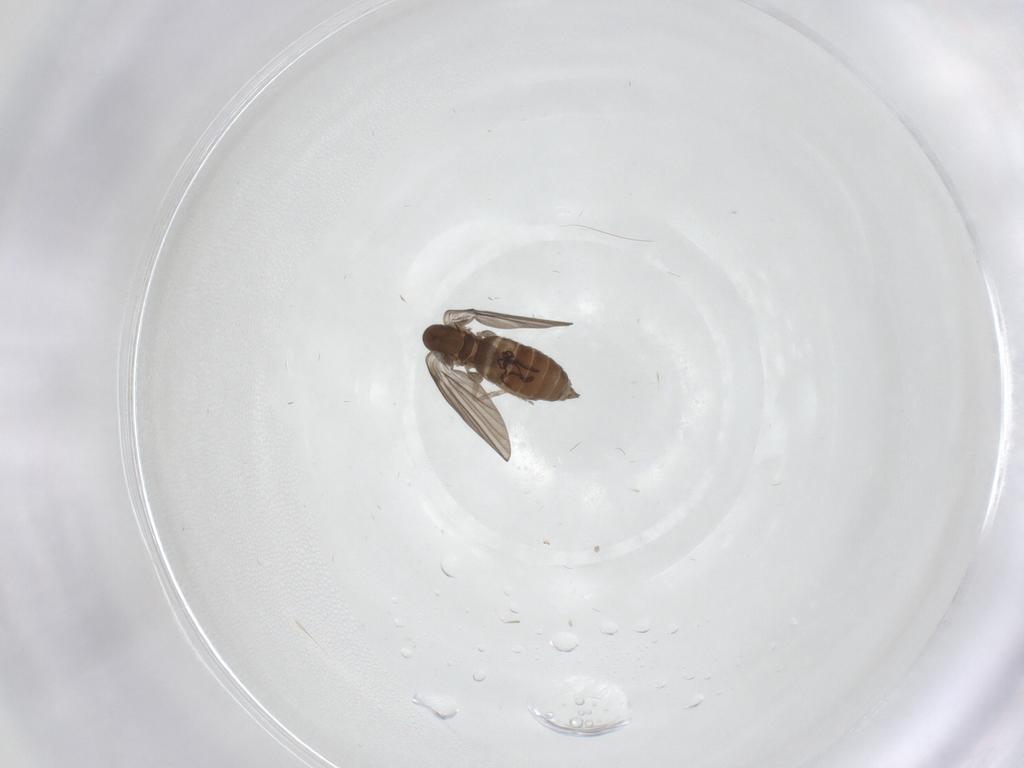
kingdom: Animalia
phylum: Arthropoda
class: Insecta
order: Diptera
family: Psychodidae
